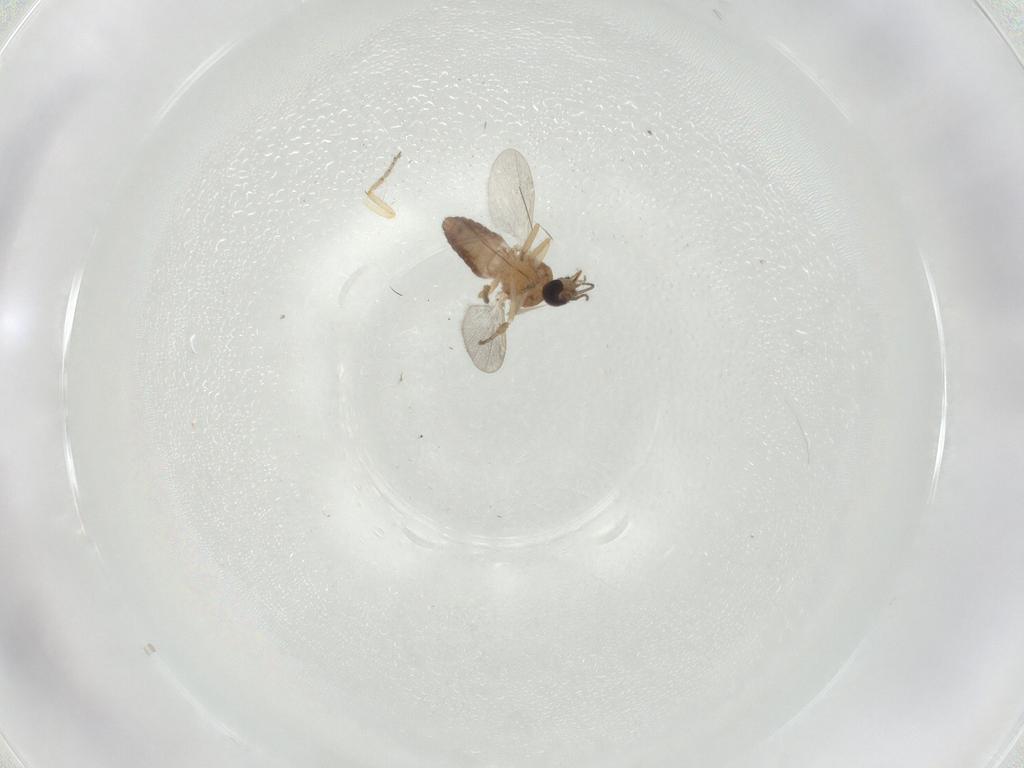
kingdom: Animalia
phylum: Arthropoda
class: Insecta
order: Diptera
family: Ceratopogonidae
